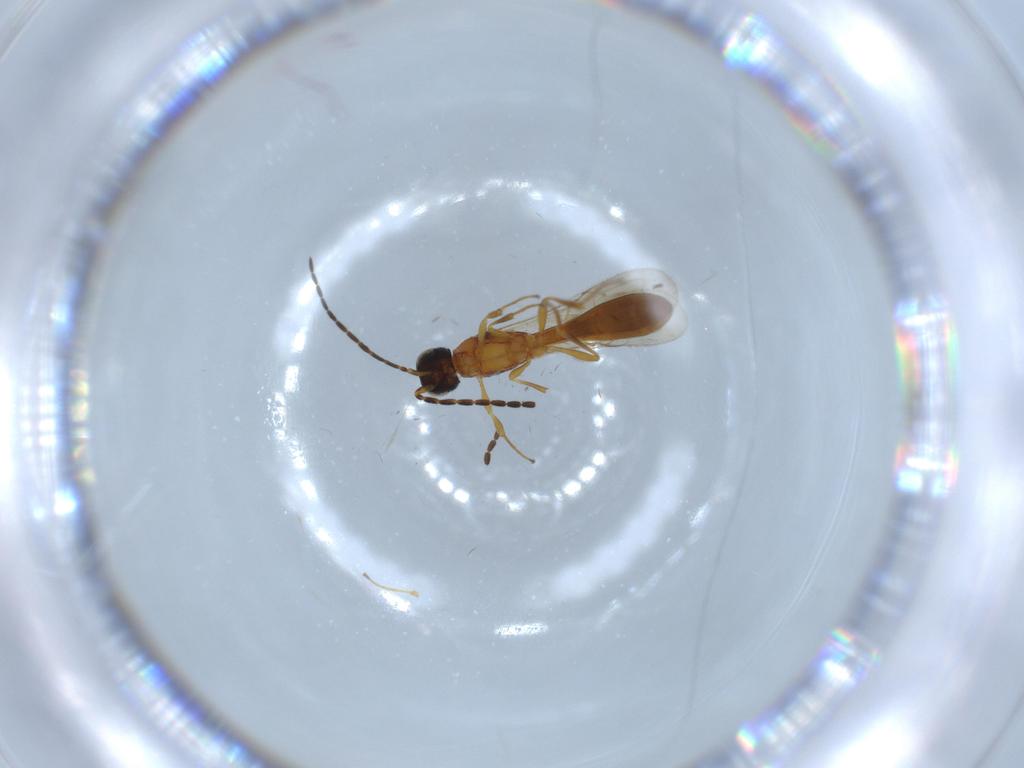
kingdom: Animalia
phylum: Arthropoda
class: Insecta
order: Hymenoptera
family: Scelionidae
